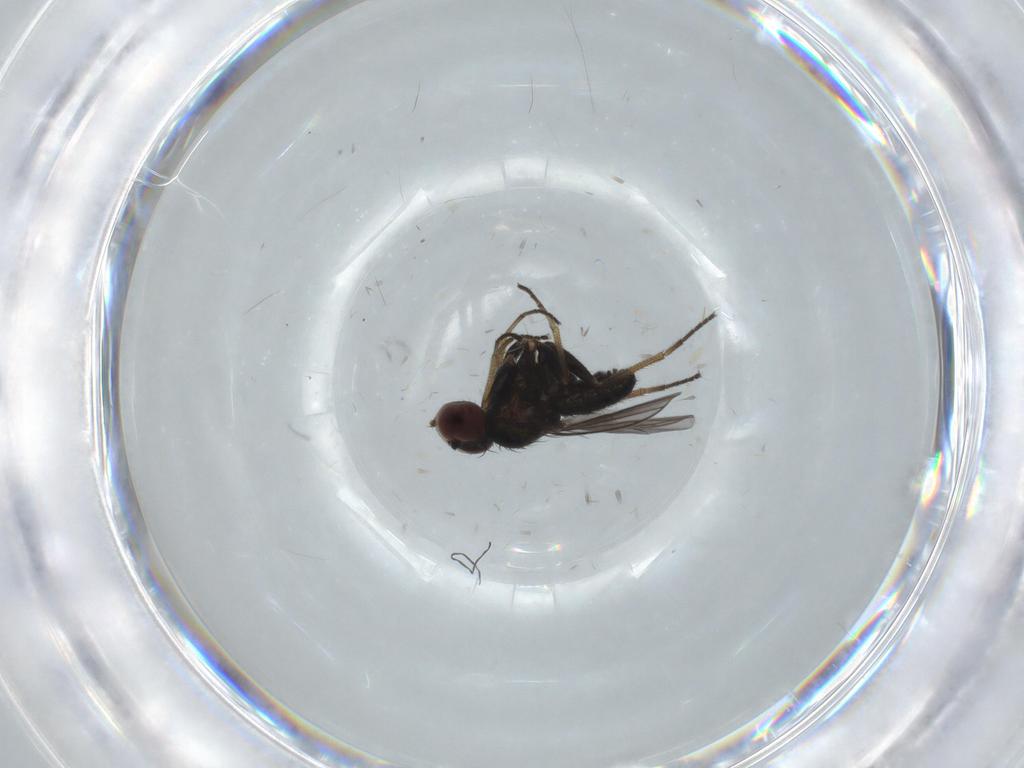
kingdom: Animalia
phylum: Arthropoda
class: Insecta
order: Diptera
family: Dolichopodidae
